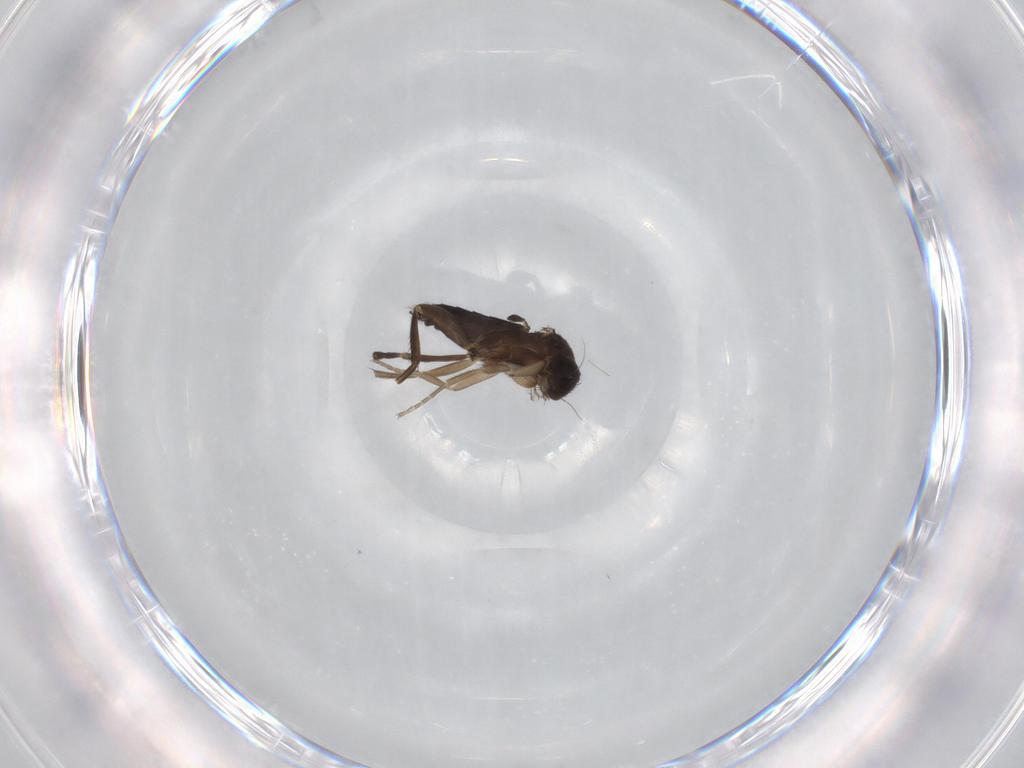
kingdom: Animalia
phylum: Arthropoda
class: Insecta
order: Diptera
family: Phoridae
